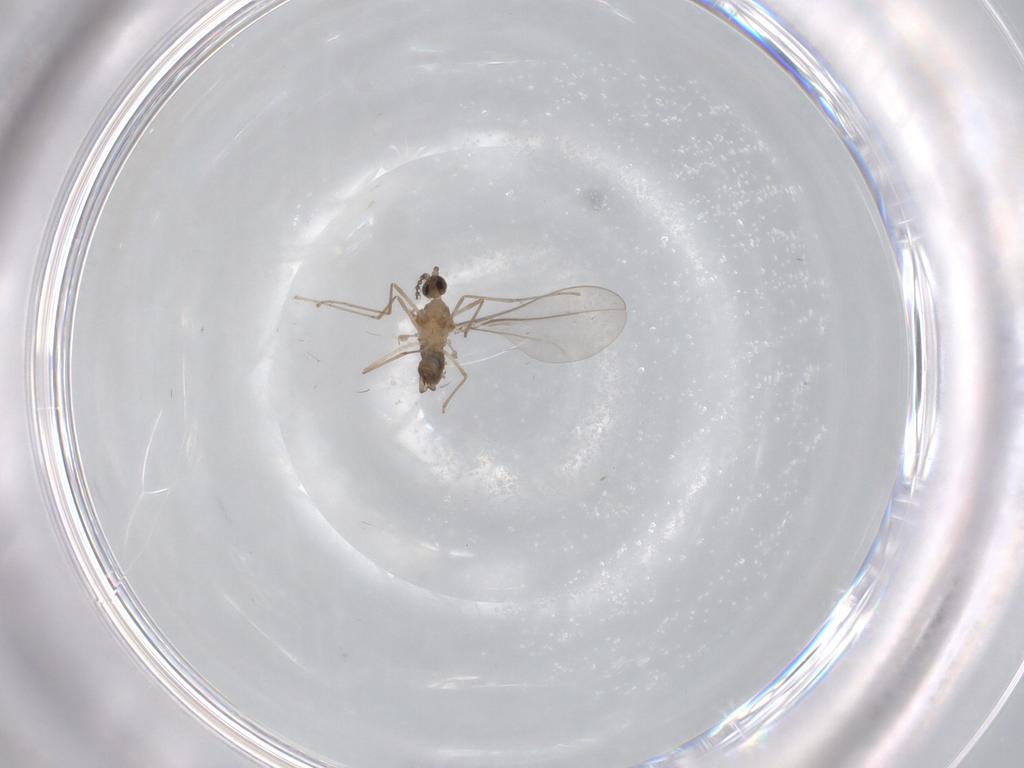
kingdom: Animalia
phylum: Arthropoda
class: Insecta
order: Diptera
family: Cecidomyiidae
